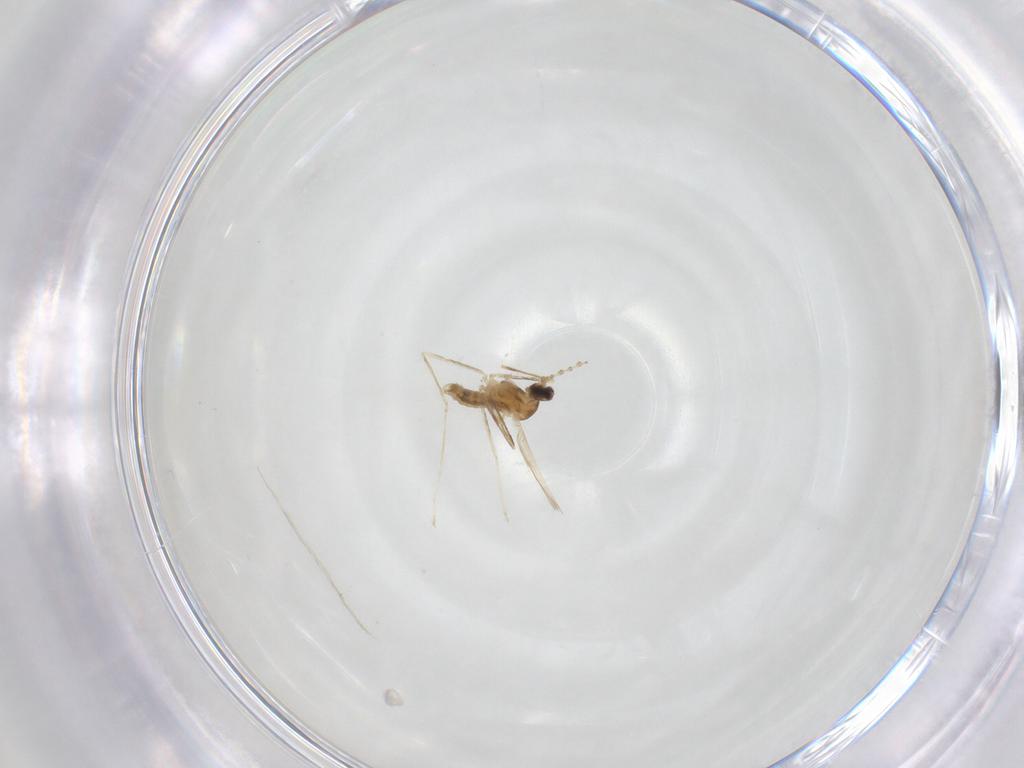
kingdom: Animalia
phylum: Arthropoda
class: Insecta
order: Diptera
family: Cecidomyiidae
